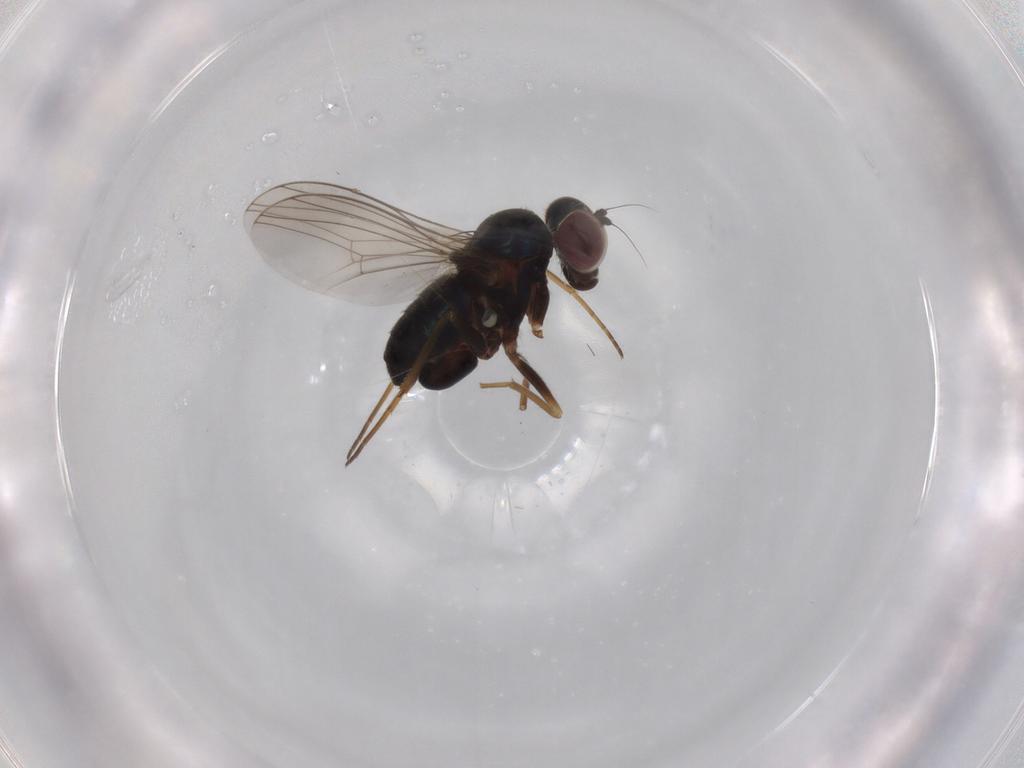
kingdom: Animalia
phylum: Arthropoda
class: Insecta
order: Diptera
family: Dolichopodidae
